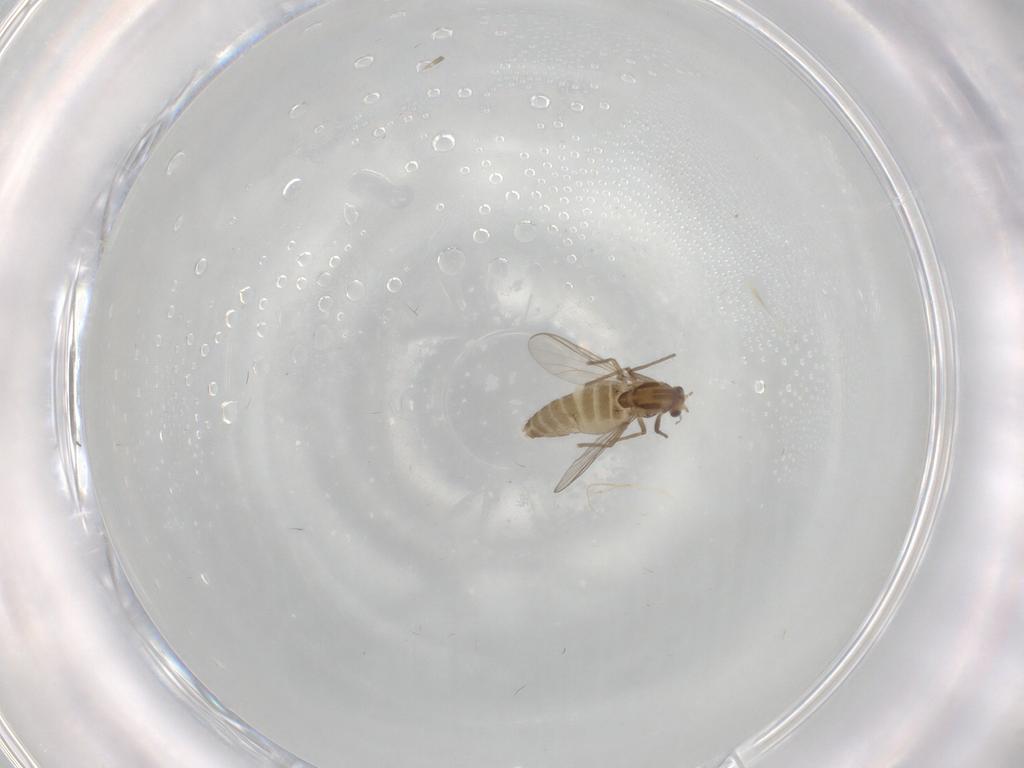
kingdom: Animalia
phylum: Arthropoda
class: Insecta
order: Diptera
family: Chironomidae
